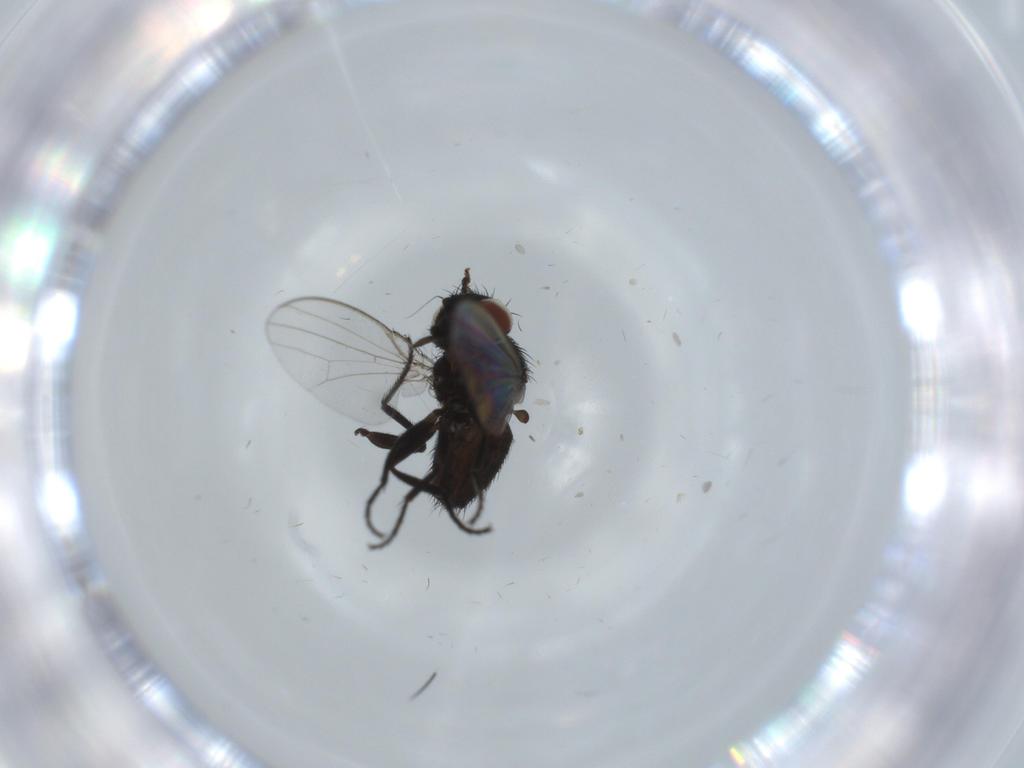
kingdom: Animalia
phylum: Arthropoda
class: Insecta
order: Diptera
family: Milichiidae
